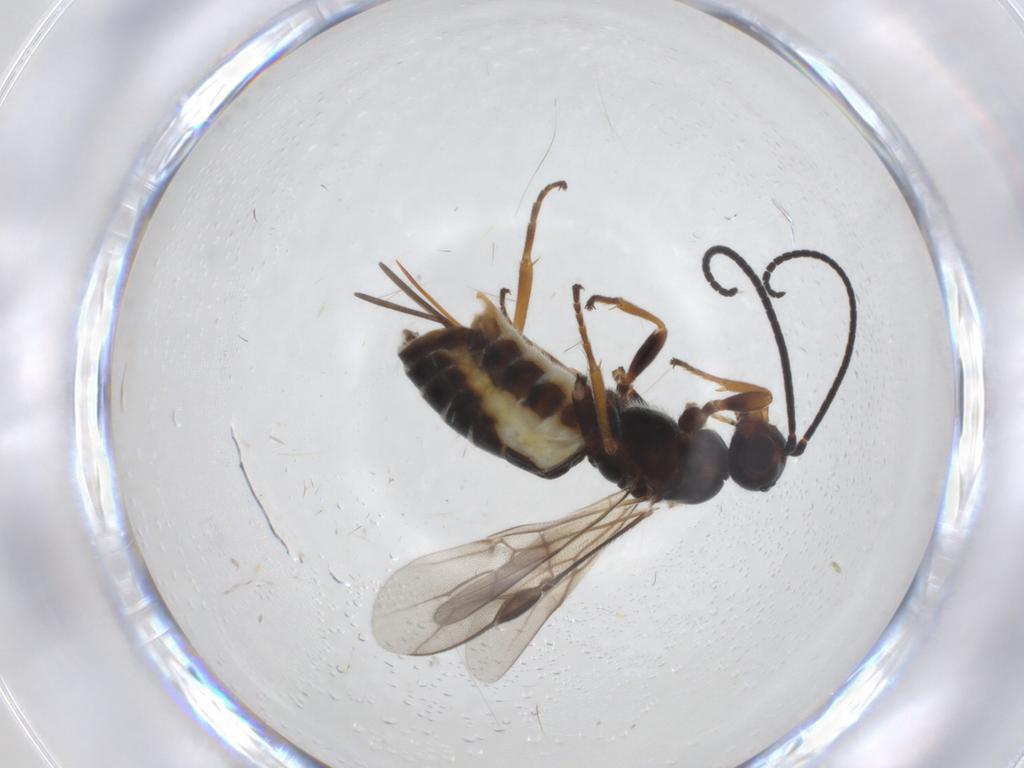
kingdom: Animalia
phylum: Arthropoda
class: Insecta
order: Hymenoptera
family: Braconidae
